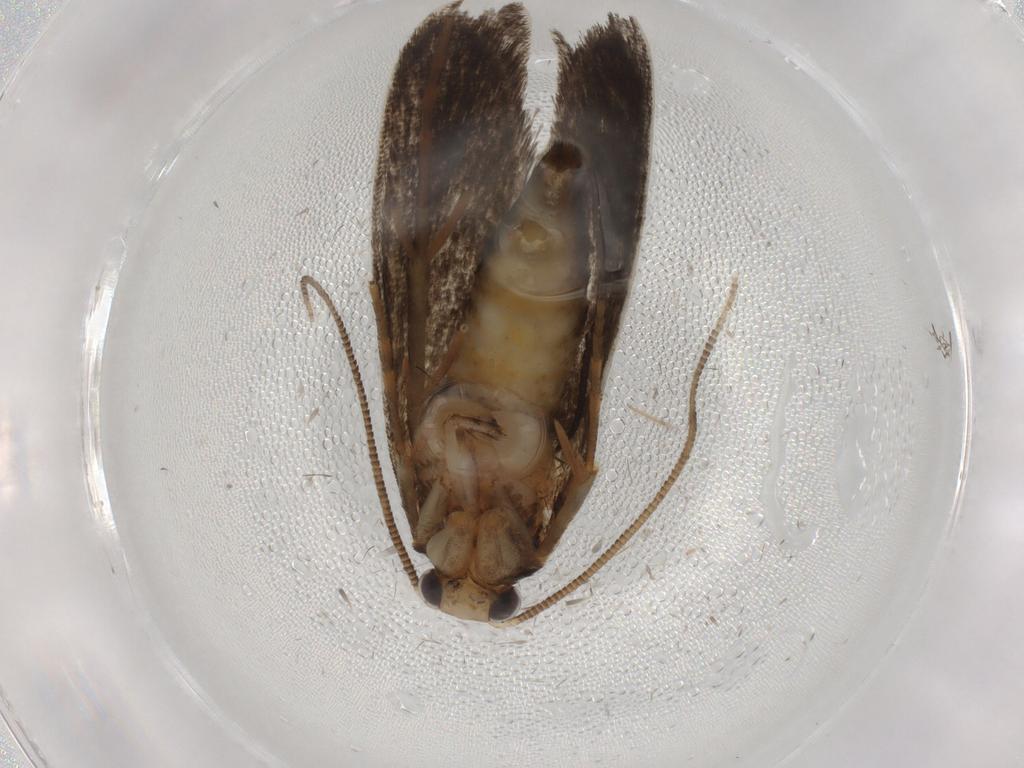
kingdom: Animalia
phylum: Arthropoda
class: Insecta
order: Lepidoptera
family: Tineidae
